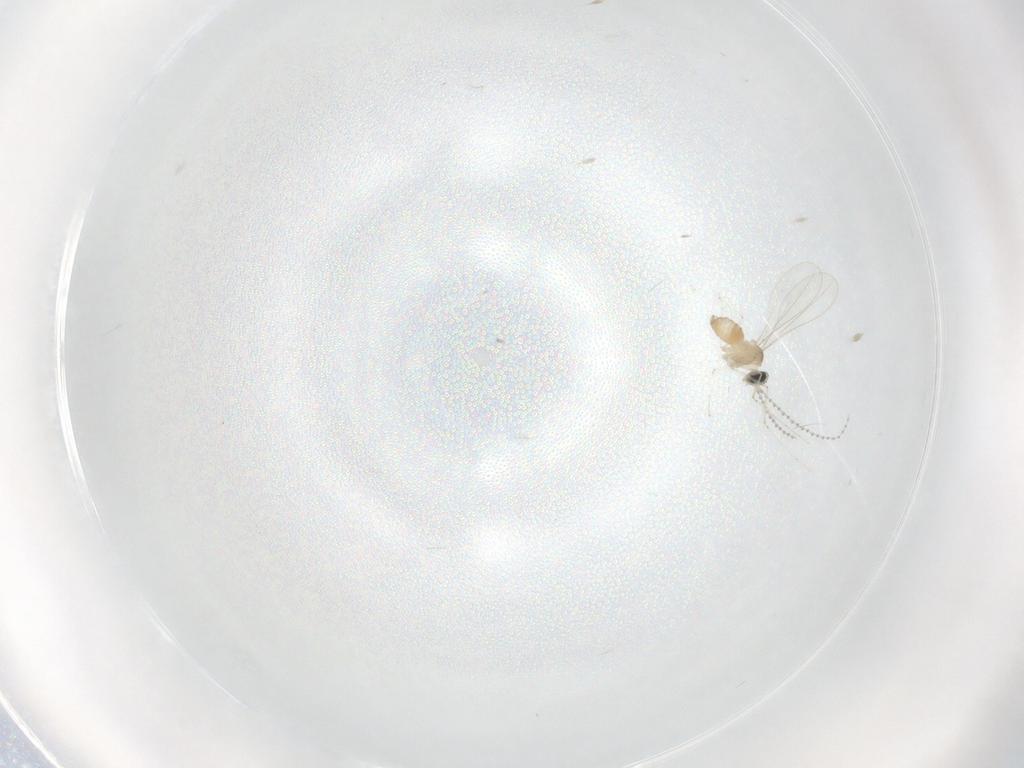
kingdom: Animalia
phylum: Arthropoda
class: Insecta
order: Diptera
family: Cecidomyiidae
